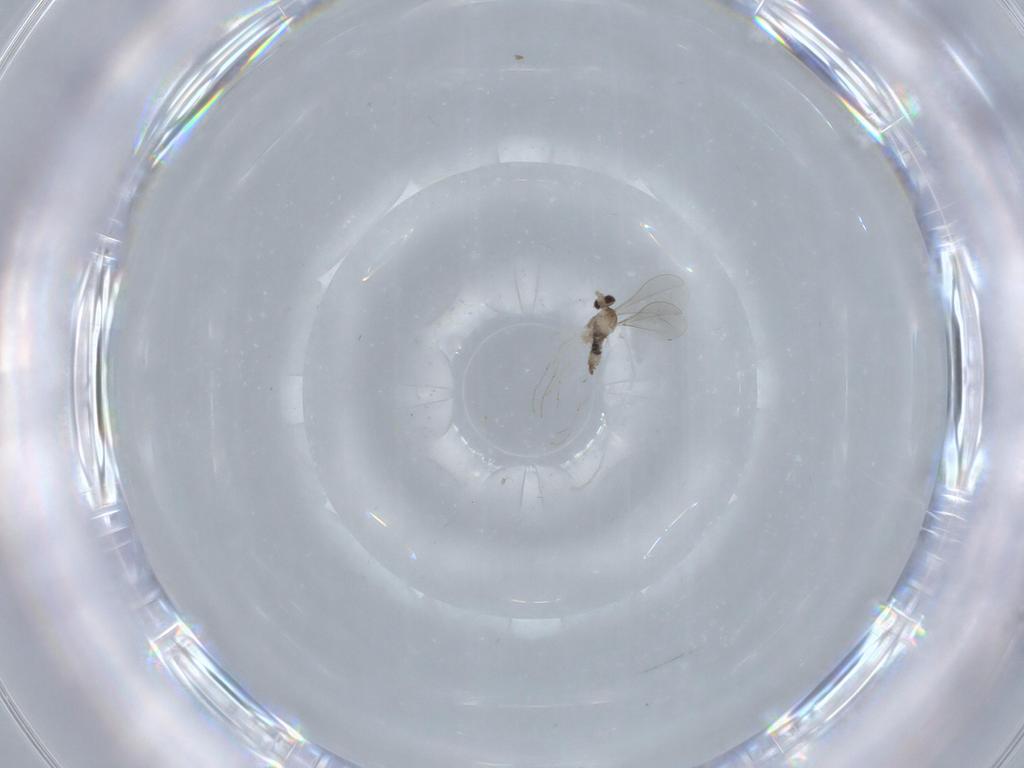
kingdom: Animalia
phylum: Arthropoda
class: Insecta
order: Diptera
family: Cecidomyiidae
